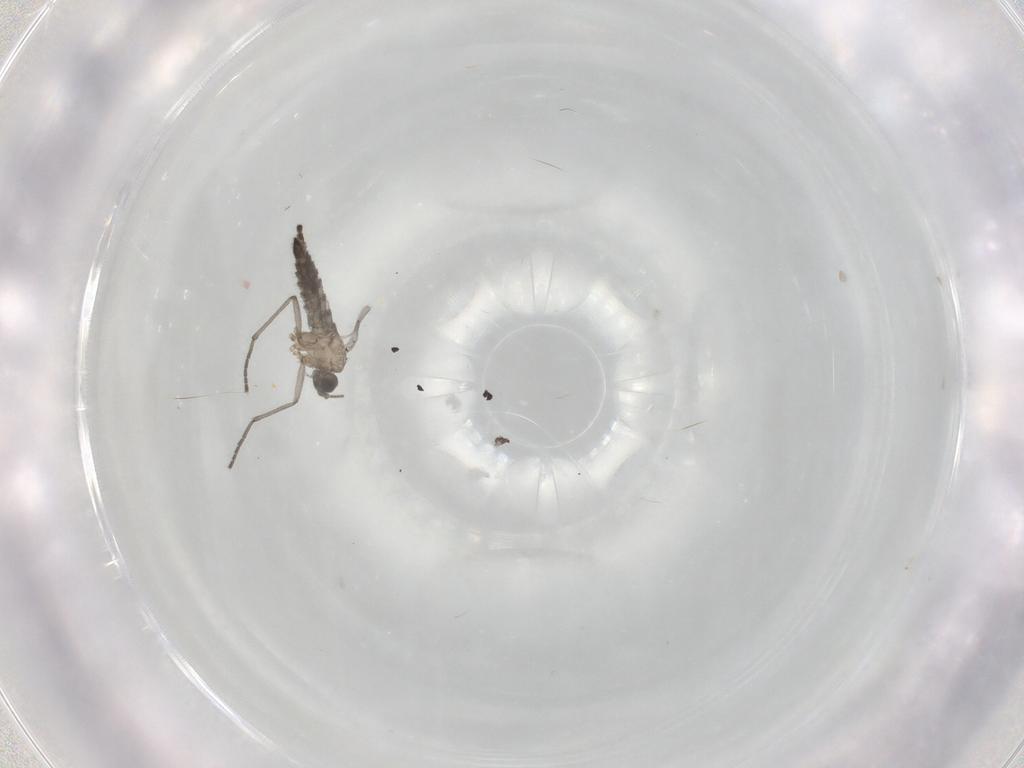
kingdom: Animalia
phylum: Arthropoda
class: Insecta
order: Diptera
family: Sciaridae
